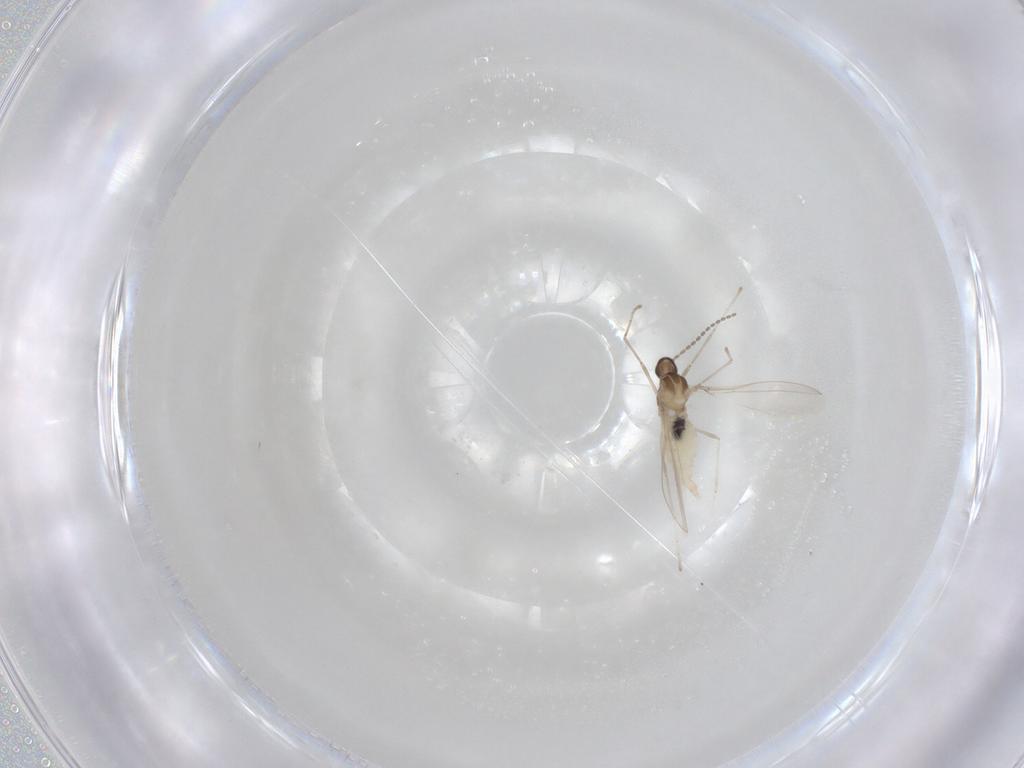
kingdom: Animalia
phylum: Arthropoda
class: Insecta
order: Diptera
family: Cecidomyiidae
